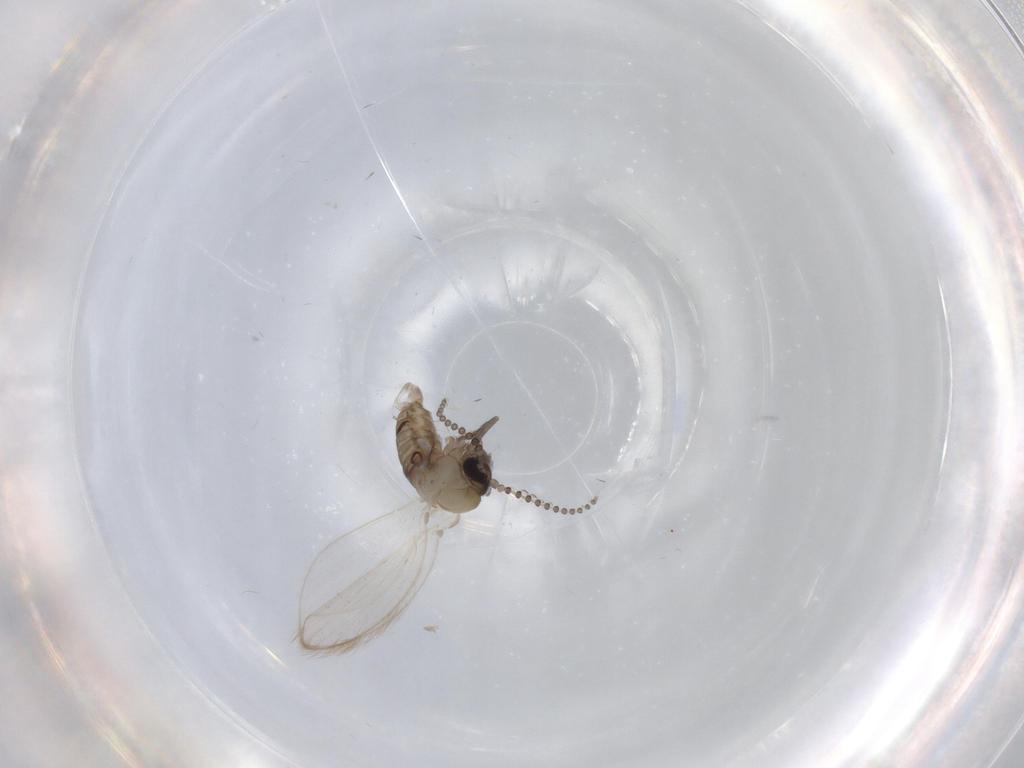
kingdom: Animalia
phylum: Arthropoda
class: Insecta
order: Diptera
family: Psychodidae
